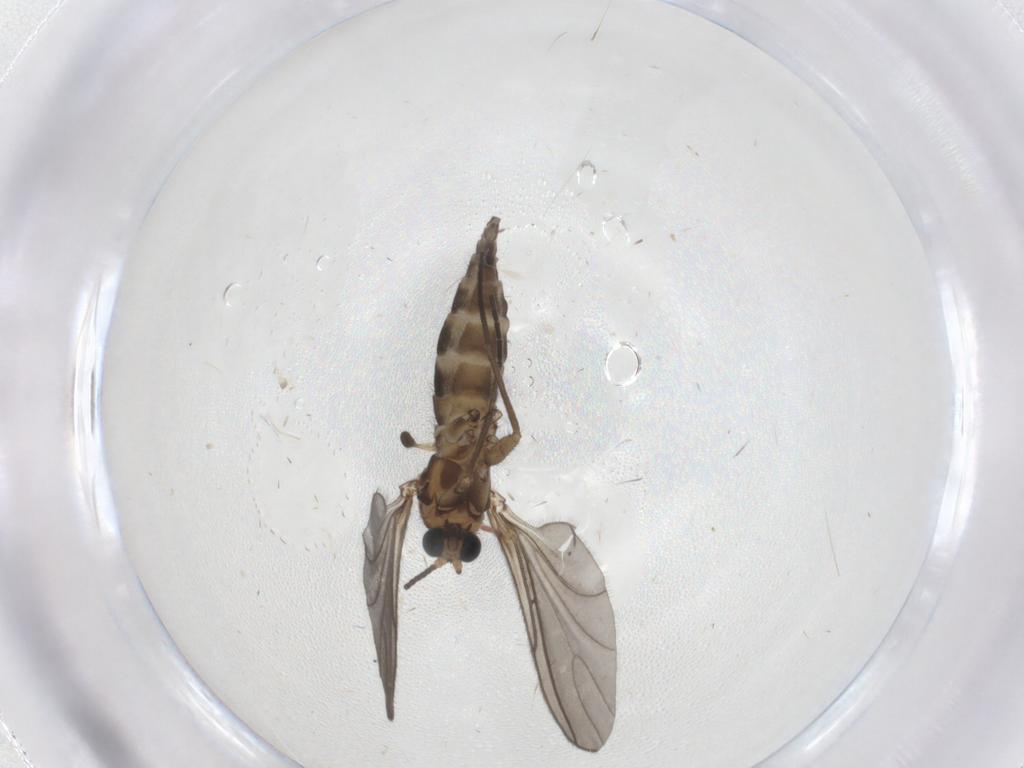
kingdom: Animalia
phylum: Arthropoda
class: Insecta
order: Diptera
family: Sciaridae
